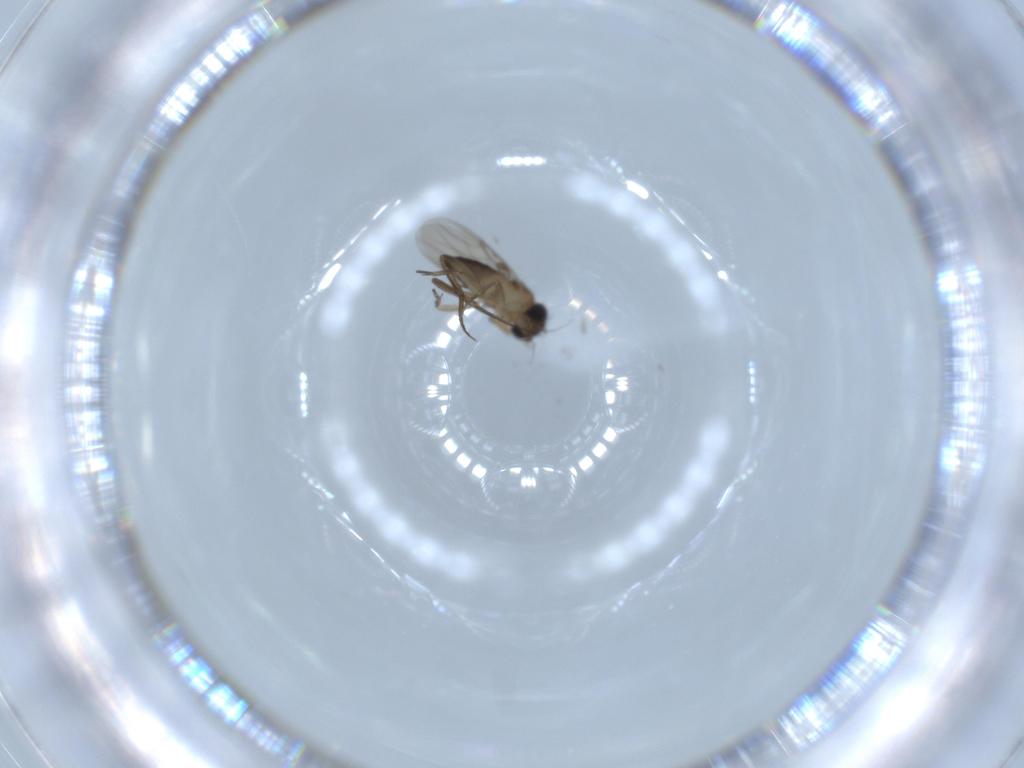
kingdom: Animalia
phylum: Arthropoda
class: Insecta
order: Diptera
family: Phoridae
